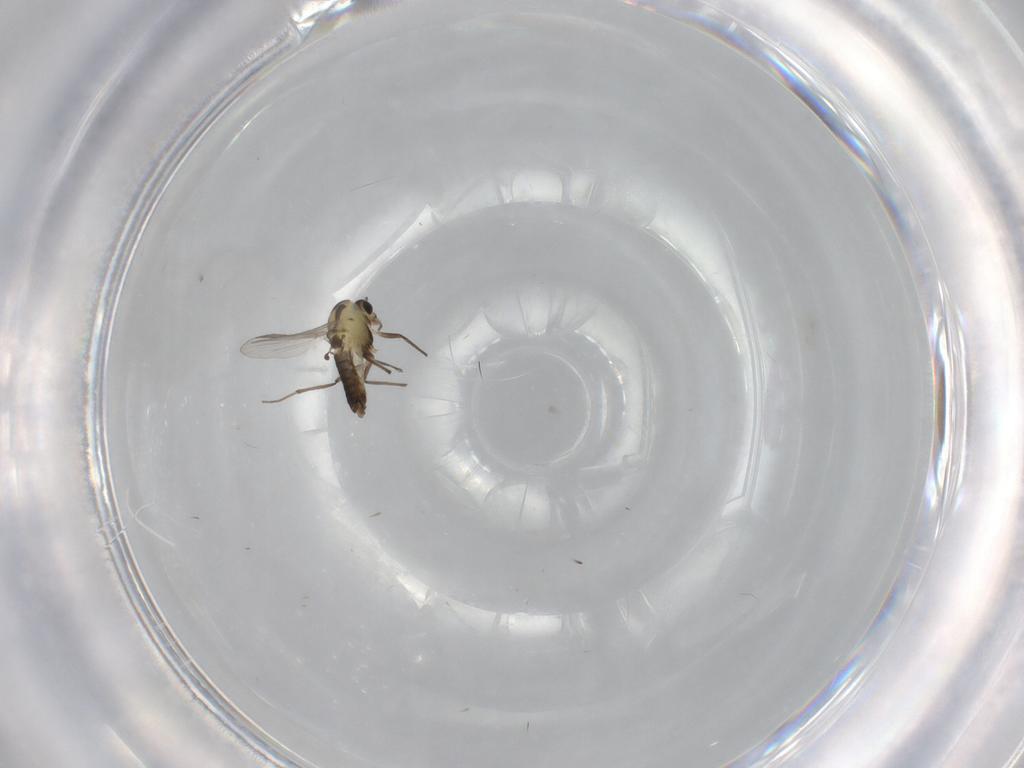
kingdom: Animalia
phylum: Arthropoda
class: Insecta
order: Diptera
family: Chironomidae
